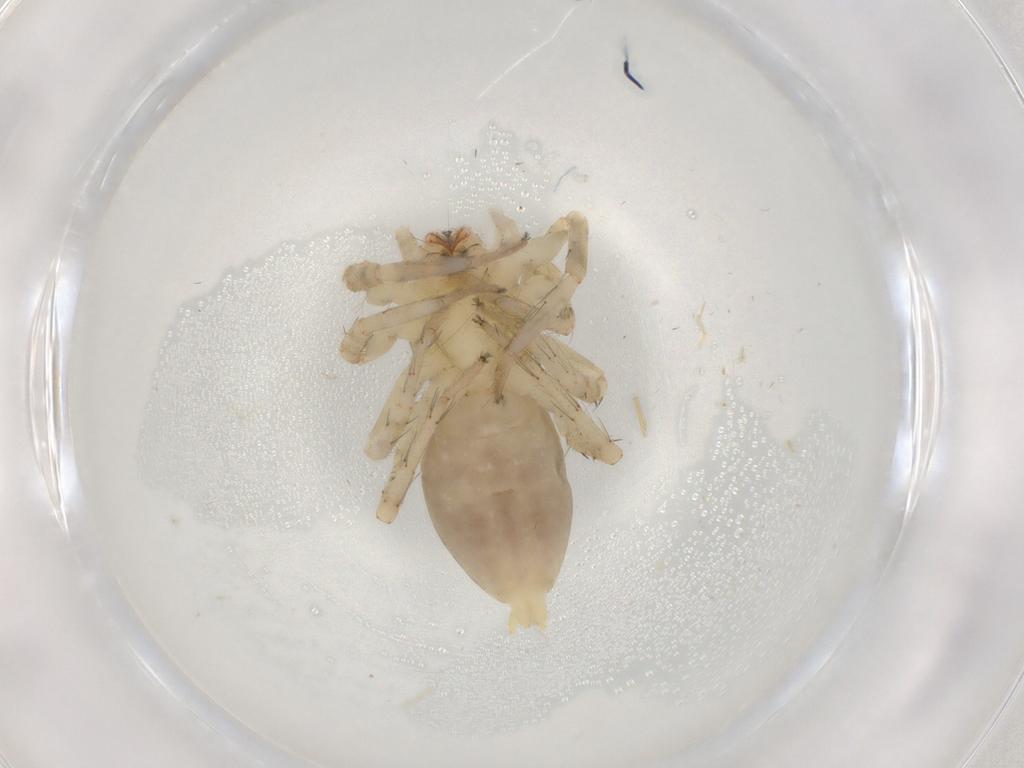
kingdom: Animalia
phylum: Arthropoda
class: Arachnida
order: Araneae
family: Anyphaenidae
